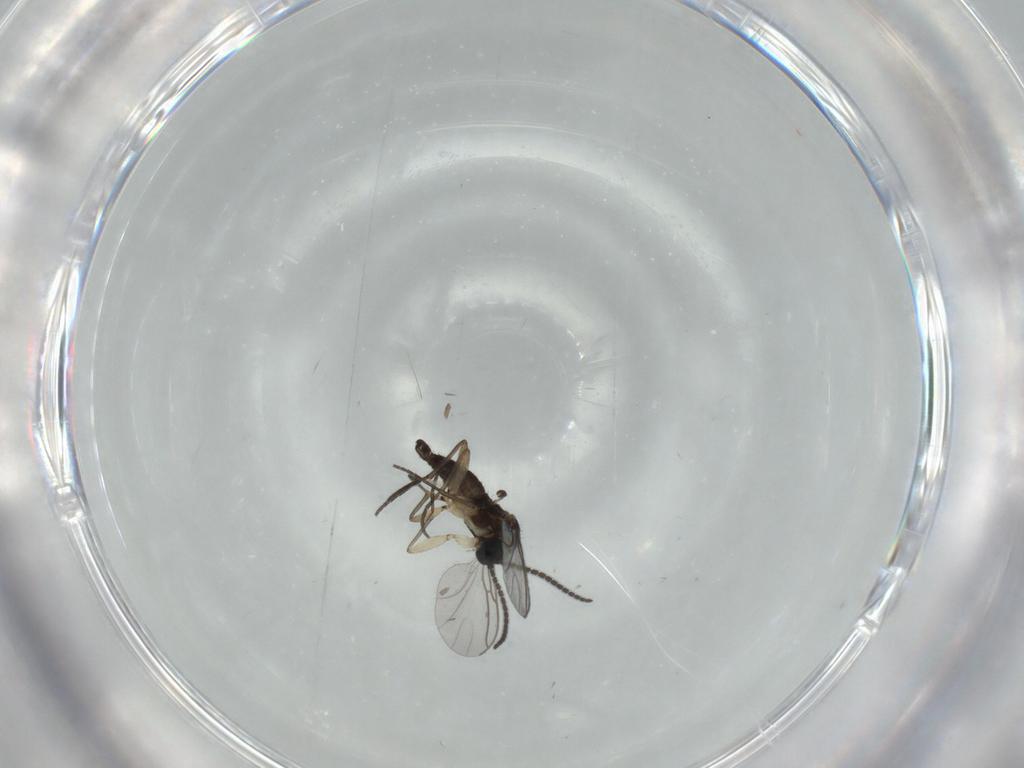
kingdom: Animalia
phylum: Arthropoda
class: Insecta
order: Diptera
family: Sciaridae
